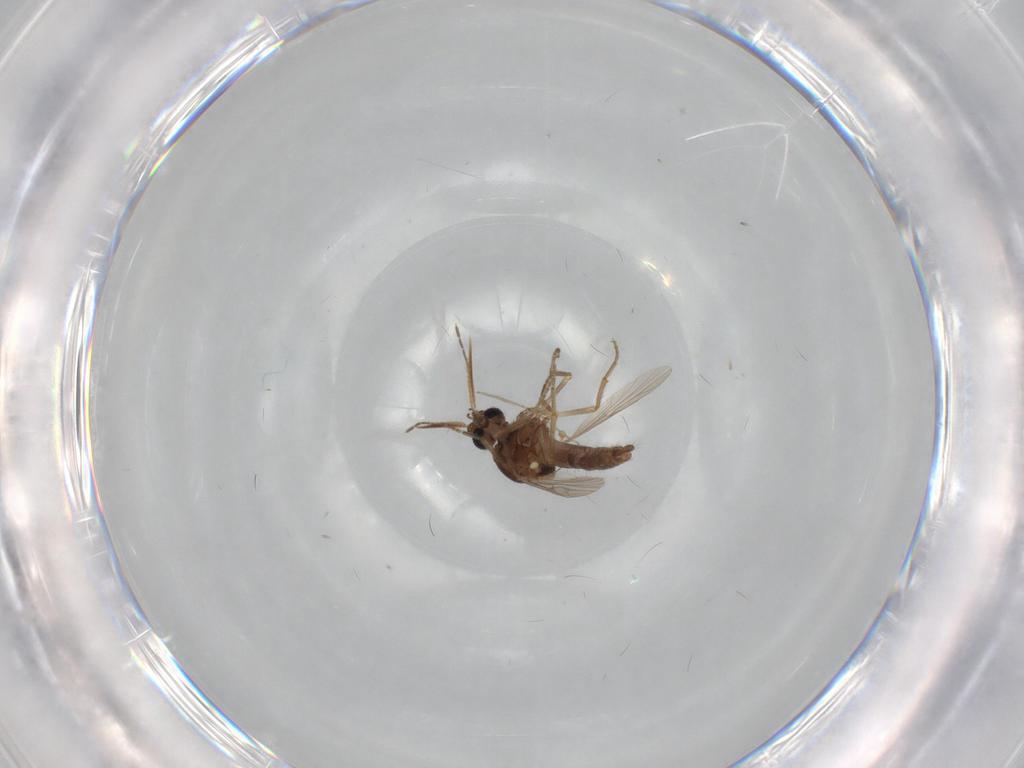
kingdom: Animalia
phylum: Arthropoda
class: Insecta
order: Diptera
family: Ceratopogonidae
